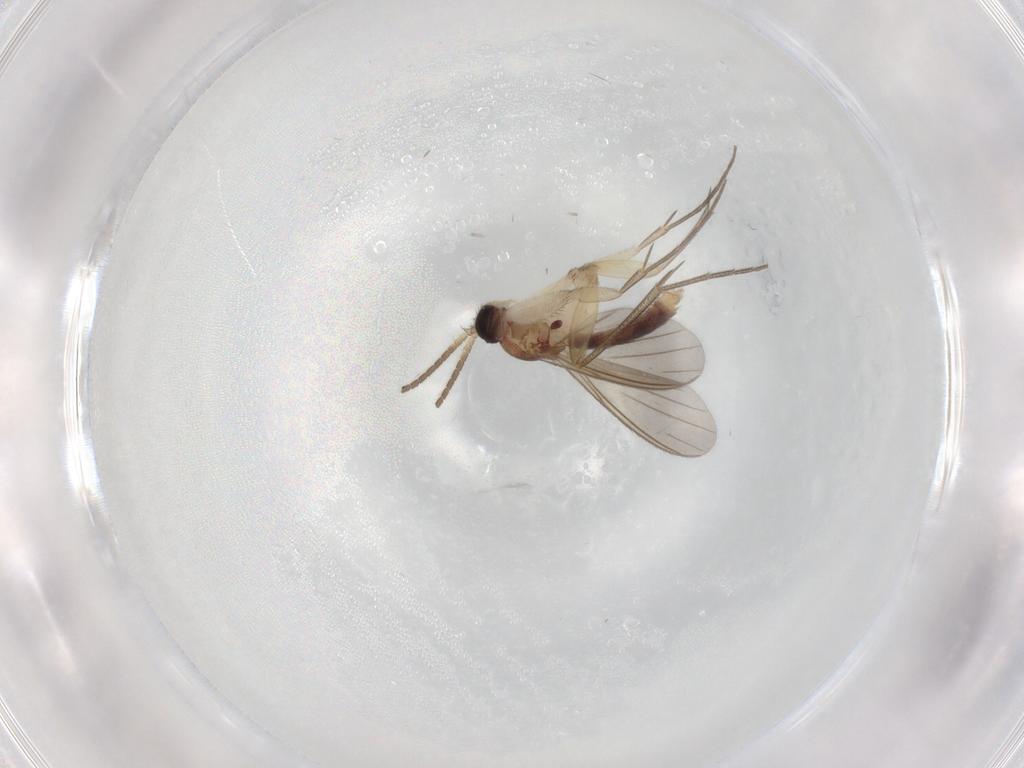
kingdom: Animalia
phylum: Arthropoda
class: Insecta
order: Diptera
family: Mycetophilidae
